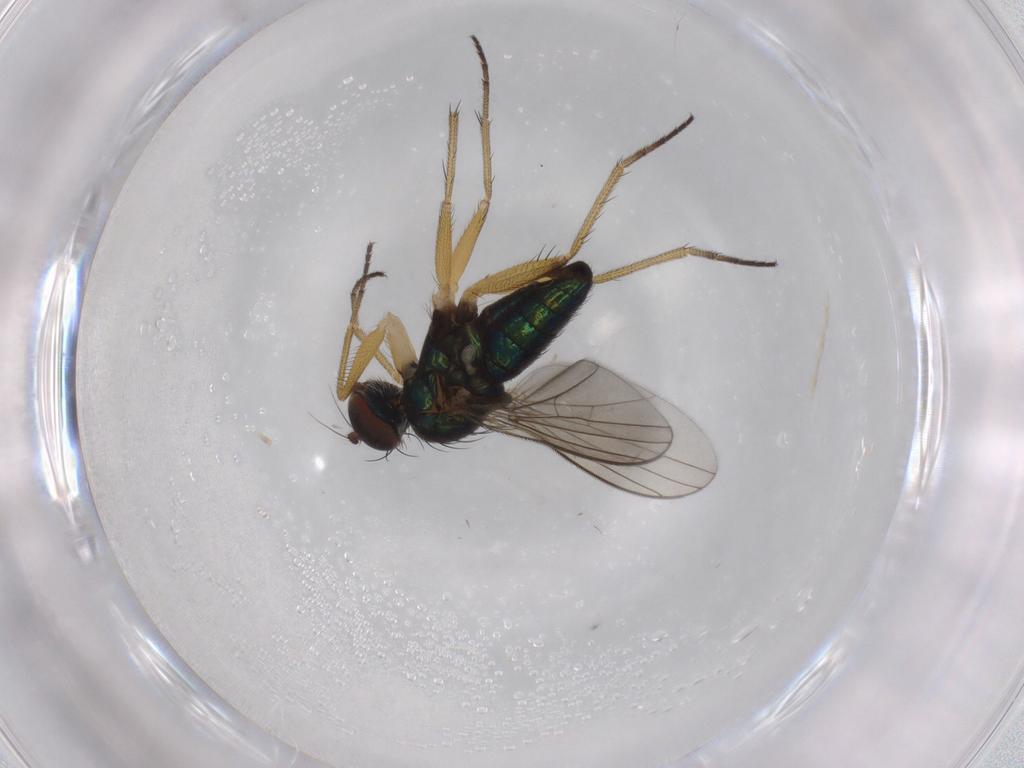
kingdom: Animalia
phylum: Arthropoda
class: Insecta
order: Diptera
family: Dolichopodidae
